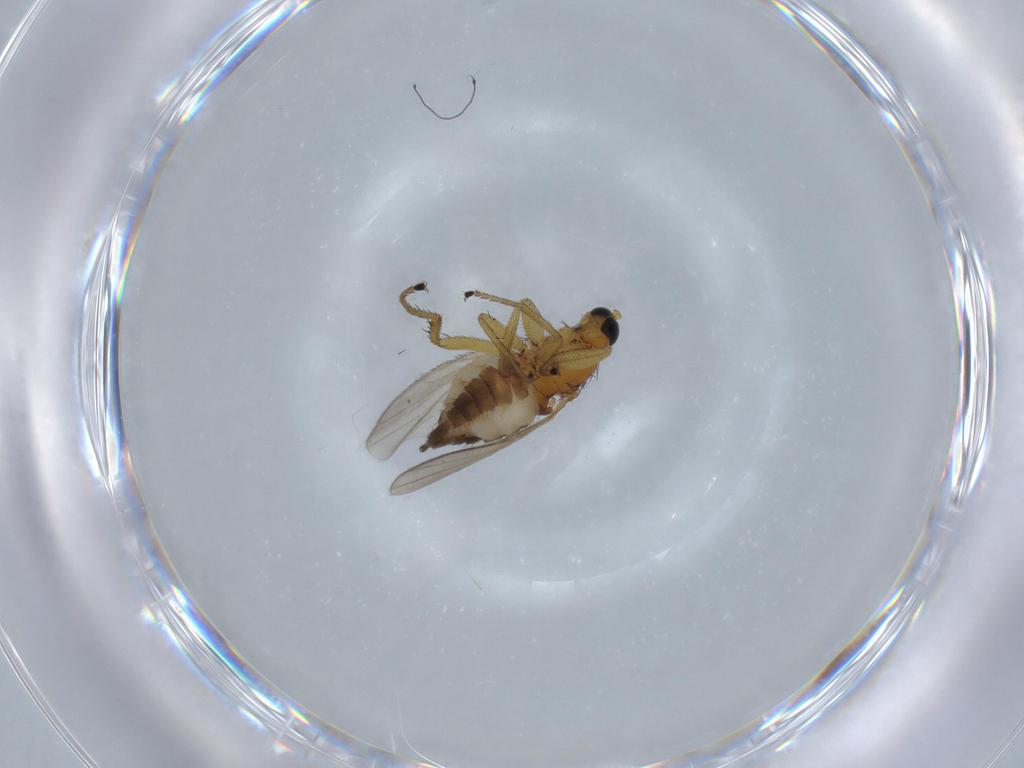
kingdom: Animalia
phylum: Arthropoda
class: Insecta
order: Diptera
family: Hybotidae
